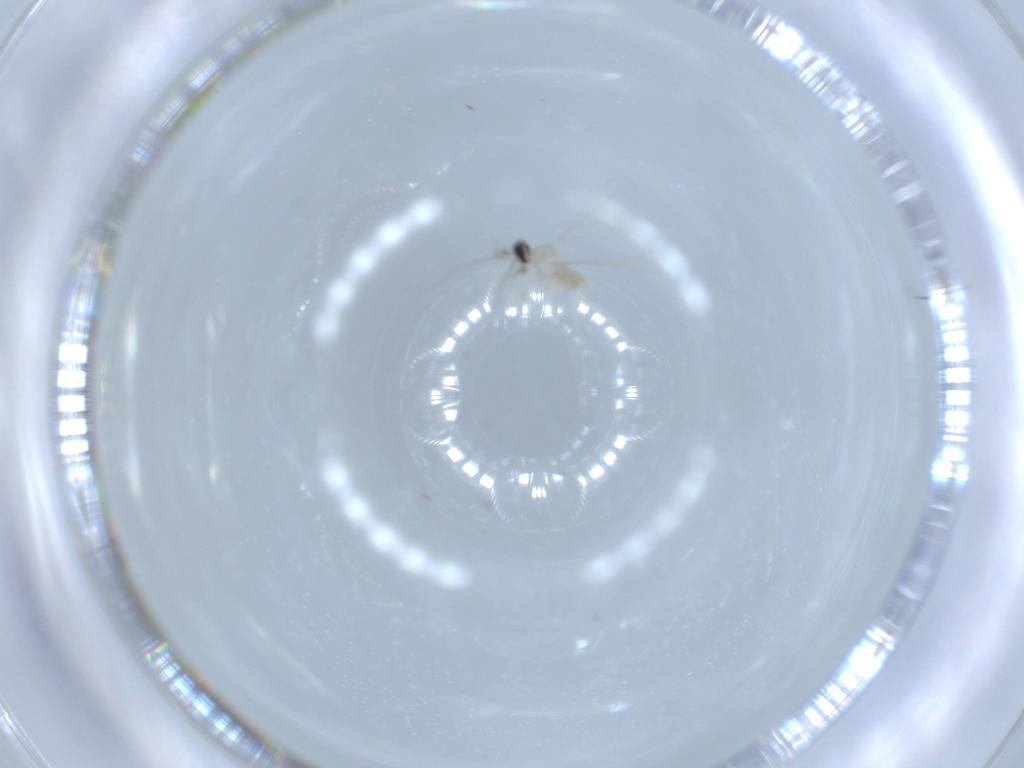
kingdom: Animalia
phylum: Arthropoda
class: Insecta
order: Diptera
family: Cecidomyiidae
